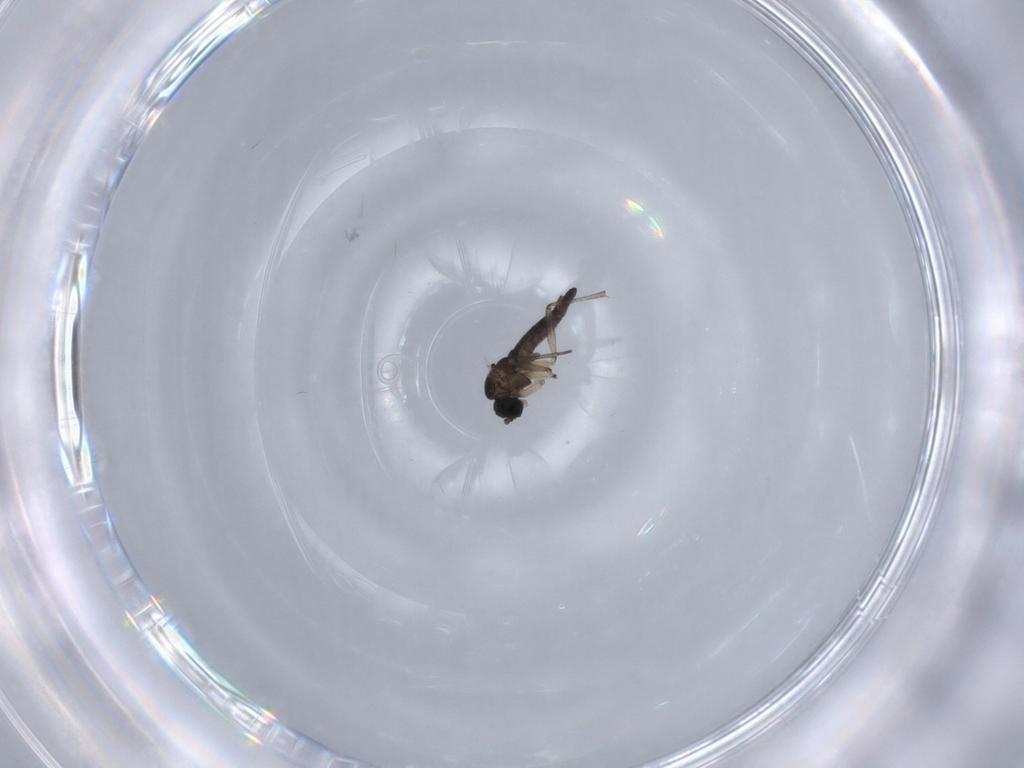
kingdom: Animalia
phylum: Arthropoda
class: Insecta
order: Diptera
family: Sciaridae
